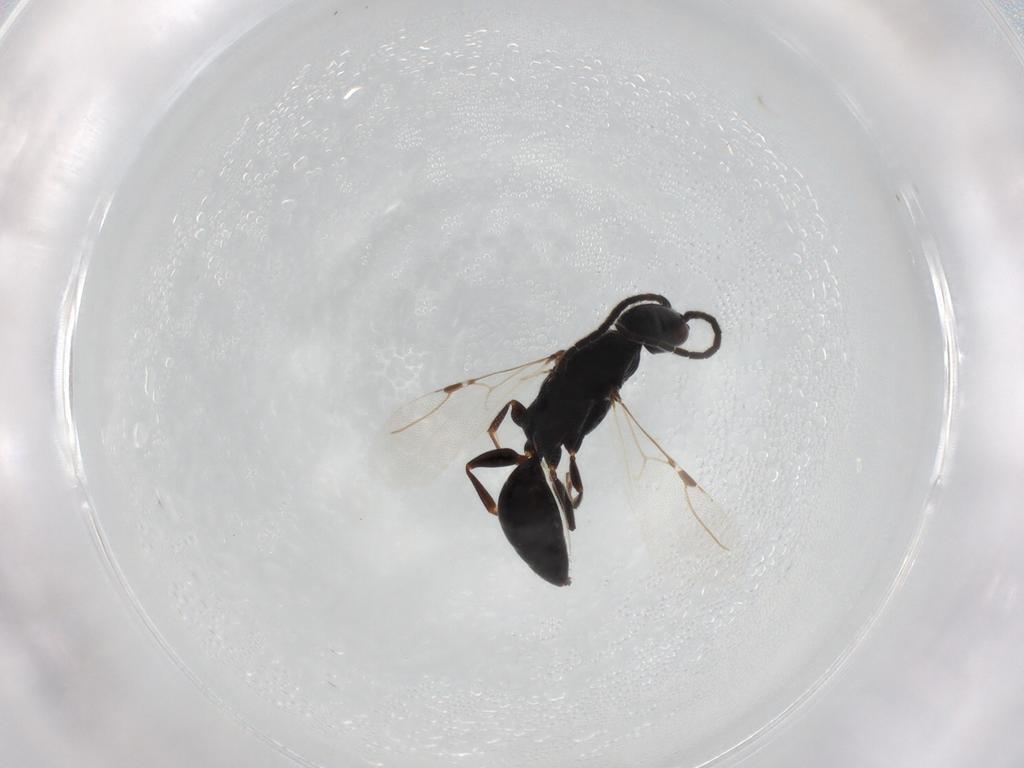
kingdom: Animalia
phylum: Arthropoda
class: Insecta
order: Hymenoptera
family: Bethylidae
